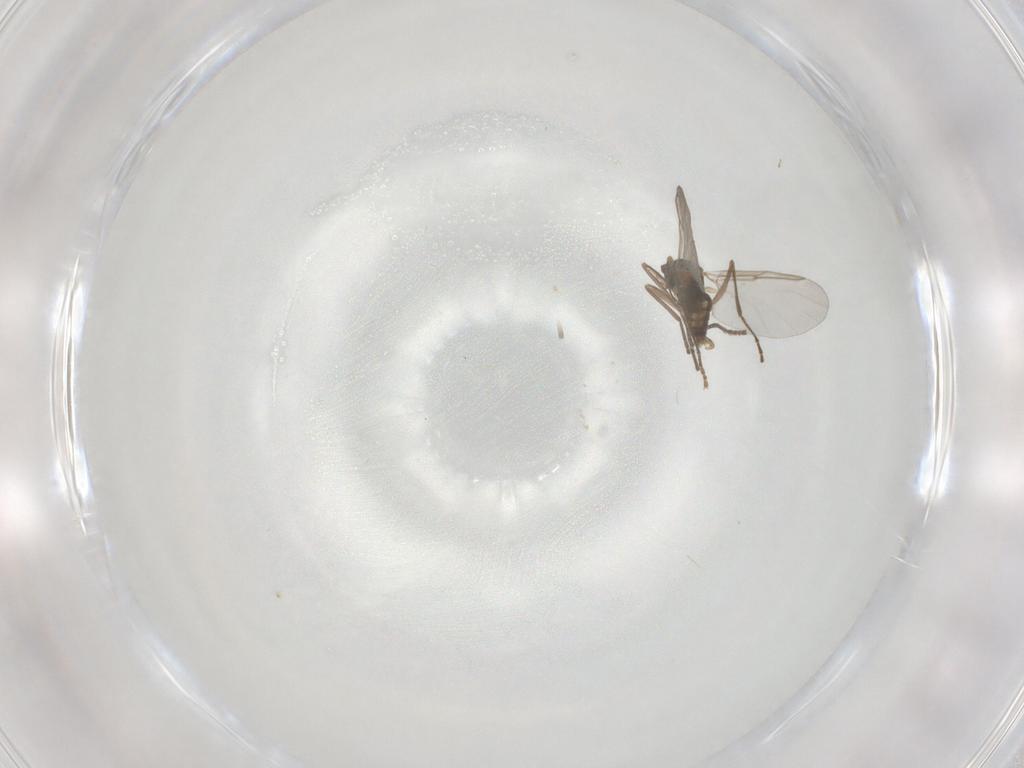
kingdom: Animalia
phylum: Arthropoda
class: Insecta
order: Diptera
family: Cecidomyiidae
